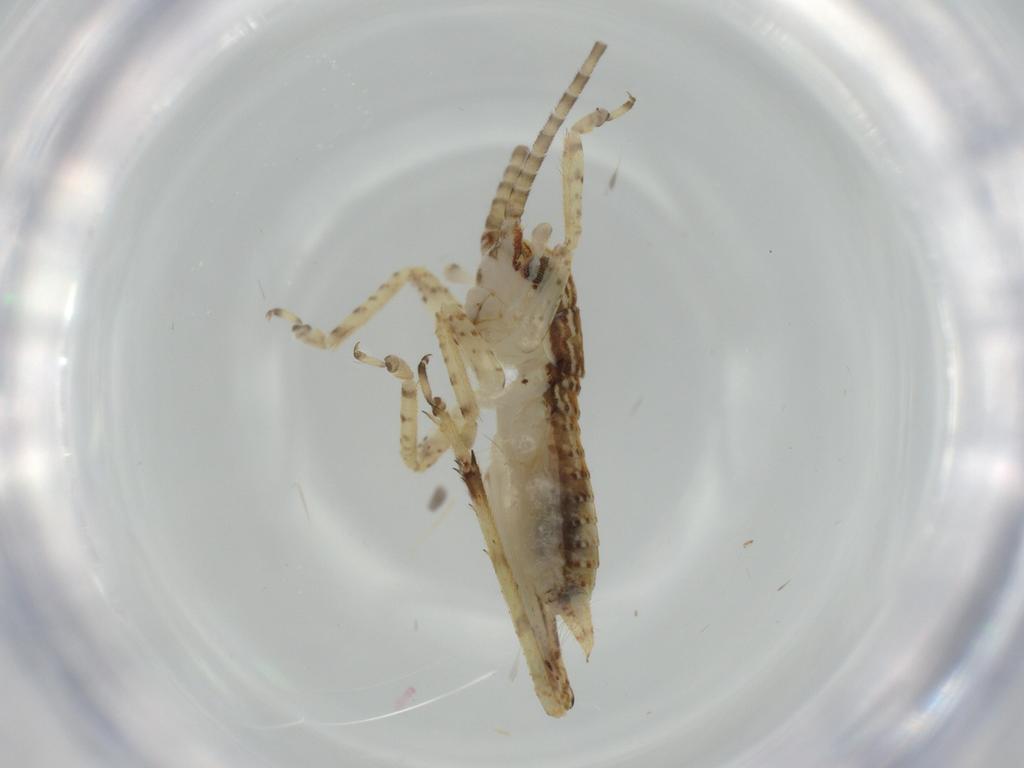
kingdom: Animalia
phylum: Arthropoda
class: Insecta
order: Orthoptera
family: Gryllidae
